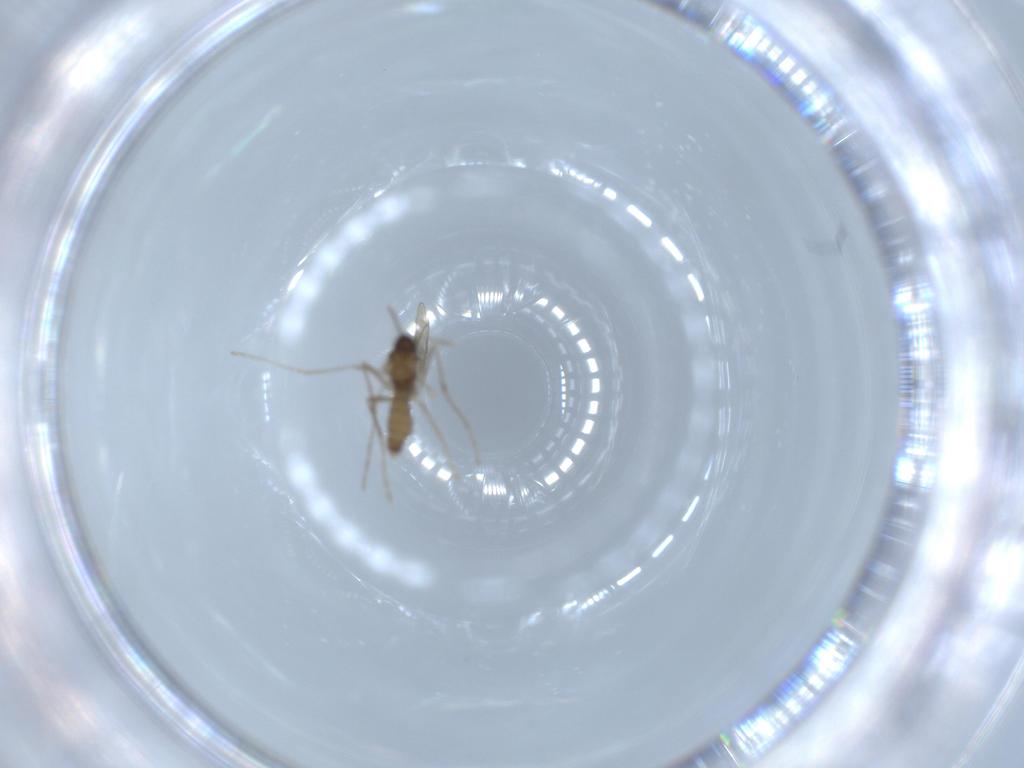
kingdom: Animalia
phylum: Arthropoda
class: Insecta
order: Diptera
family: Cecidomyiidae
